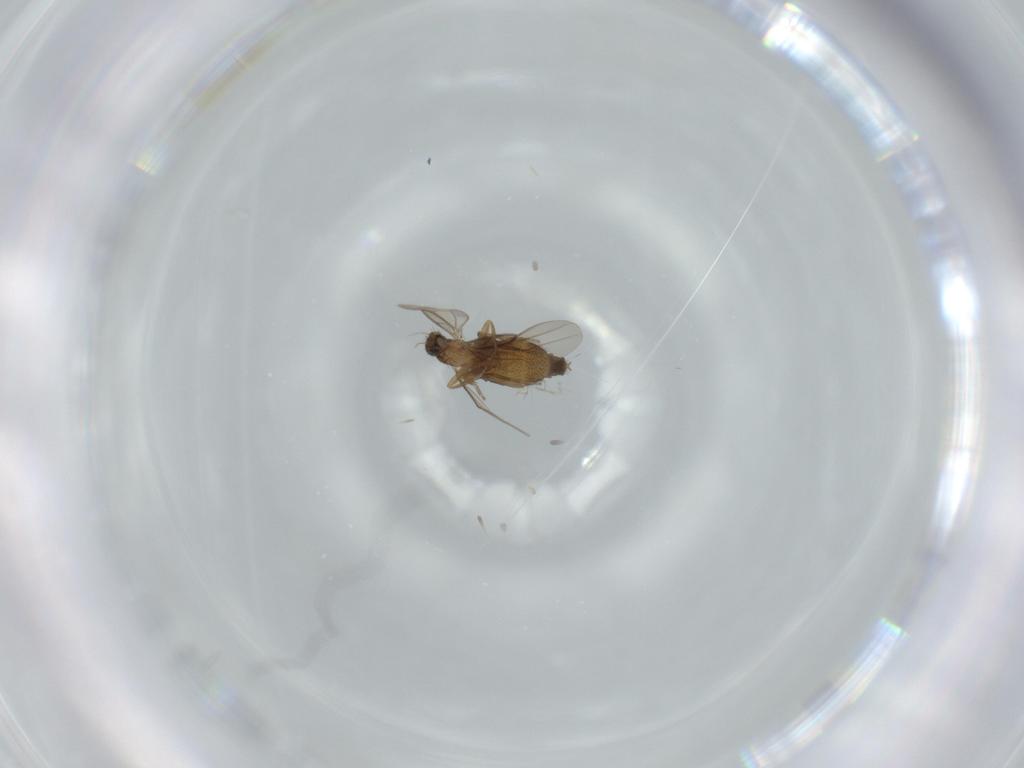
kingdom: Animalia
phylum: Arthropoda
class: Insecta
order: Diptera
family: Phoridae
